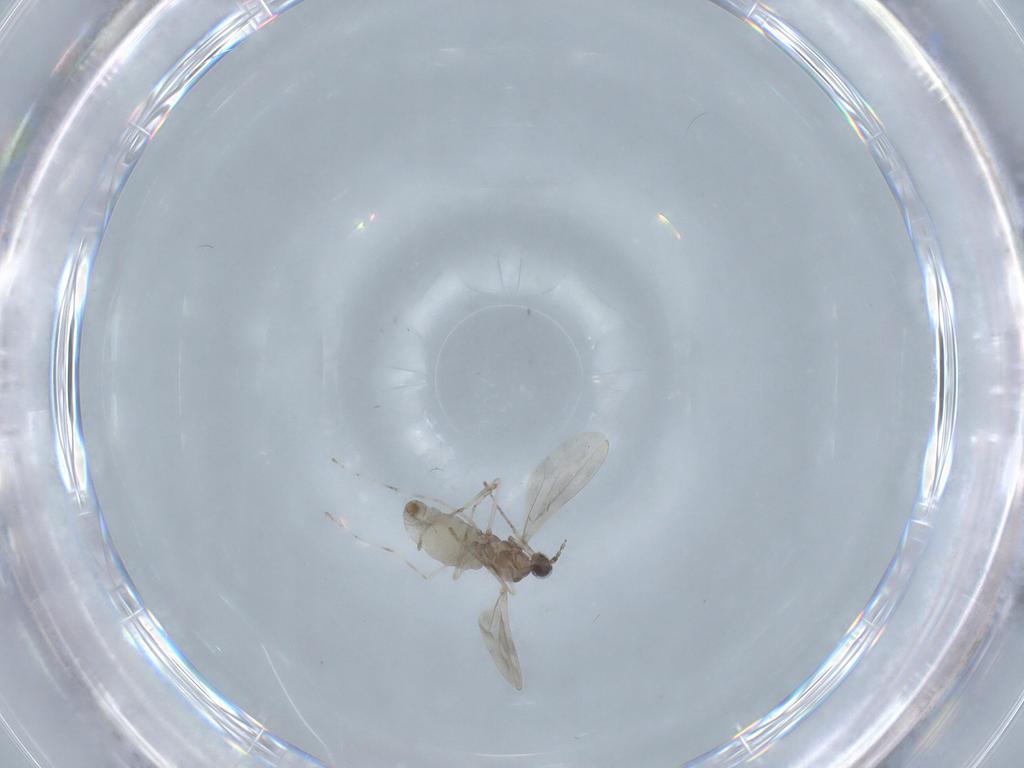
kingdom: Animalia
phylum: Arthropoda
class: Insecta
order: Diptera
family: Cecidomyiidae
